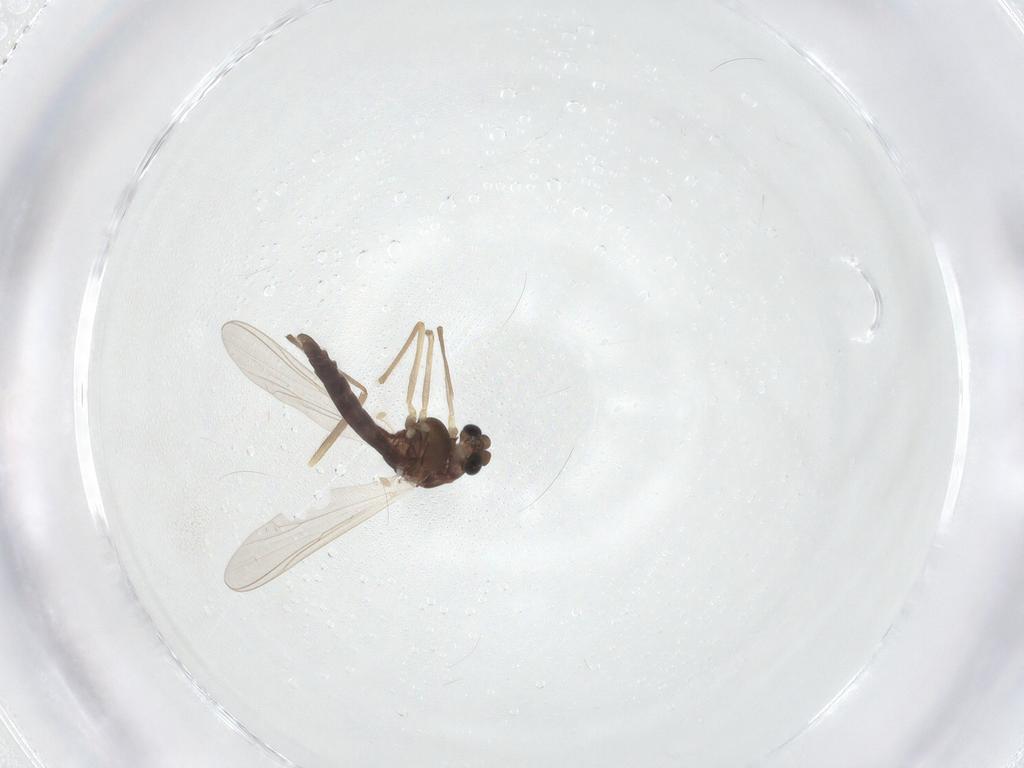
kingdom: Animalia
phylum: Arthropoda
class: Insecta
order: Diptera
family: Chironomidae
